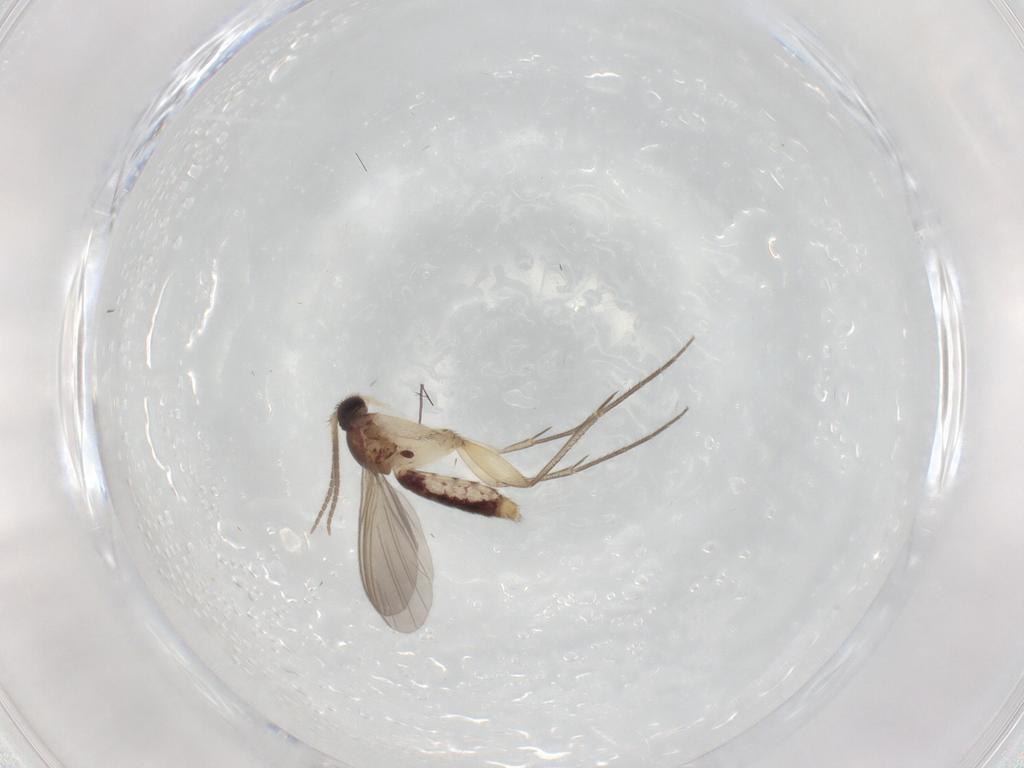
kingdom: Animalia
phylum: Arthropoda
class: Insecta
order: Diptera
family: Mycetophilidae
